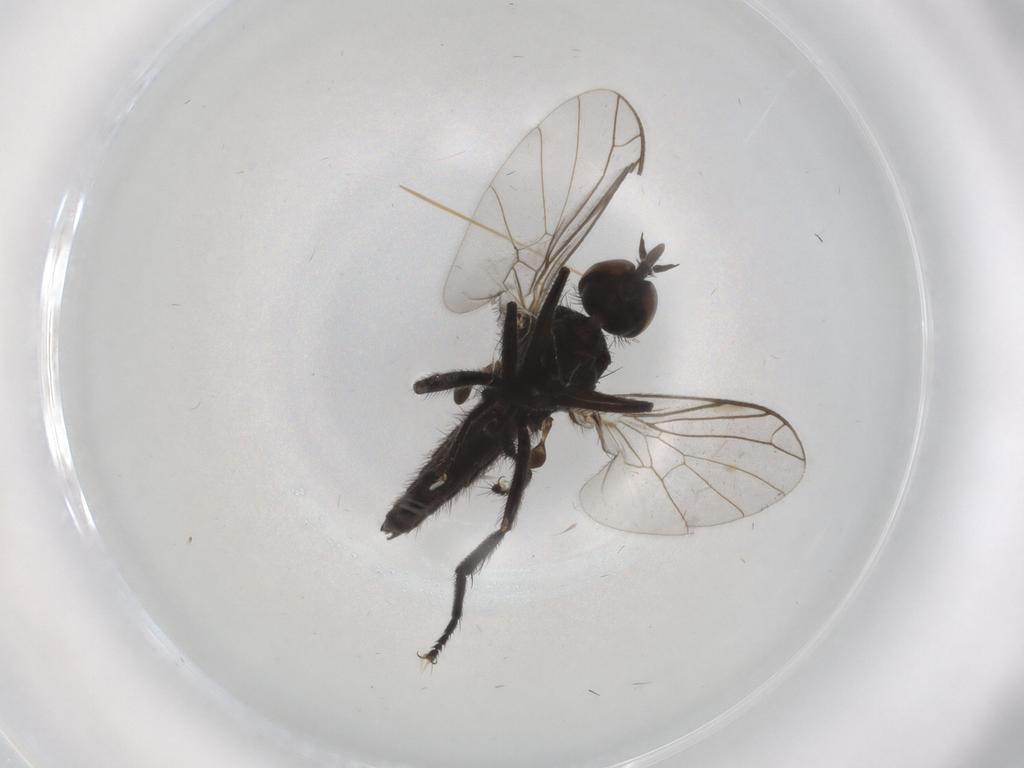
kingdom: Animalia
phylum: Arthropoda
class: Insecta
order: Diptera
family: Empididae
